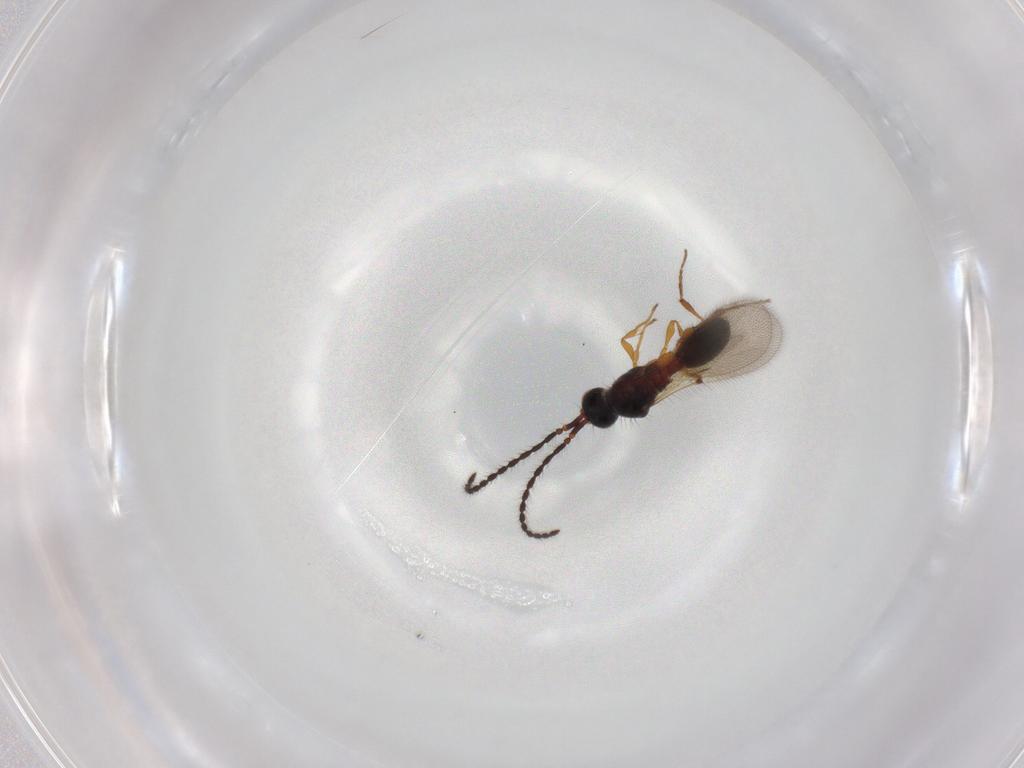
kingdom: Animalia
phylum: Arthropoda
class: Insecta
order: Hymenoptera
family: Diapriidae
